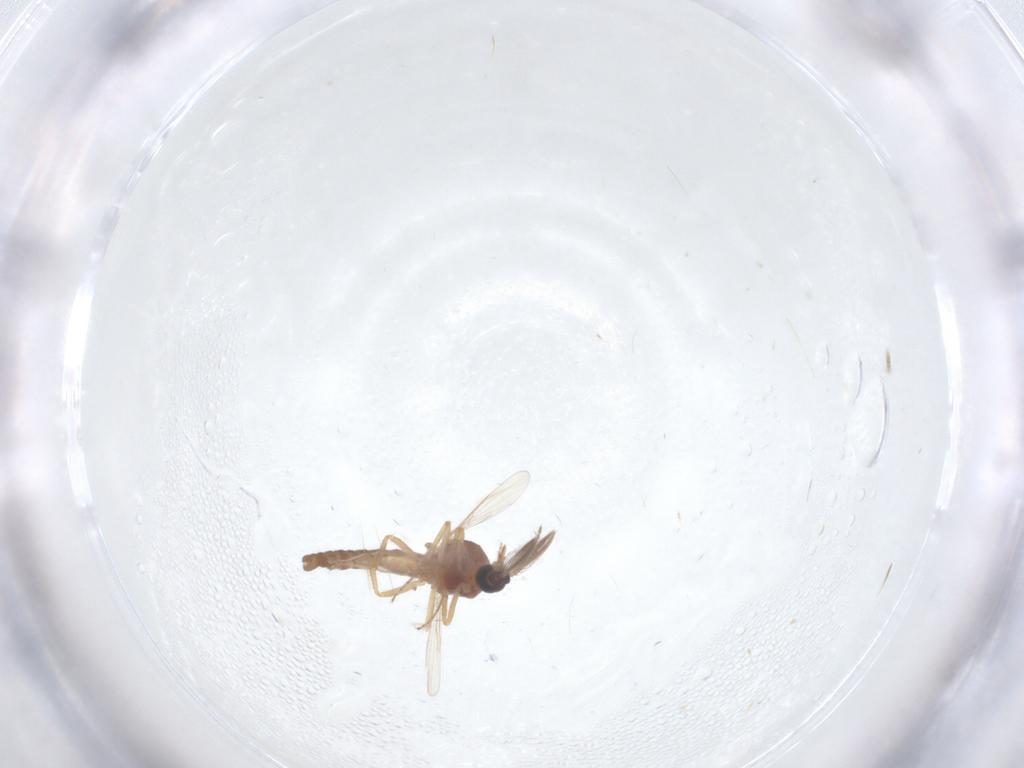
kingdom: Animalia
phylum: Arthropoda
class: Insecta
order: Diptera
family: Ceratopogonidae
